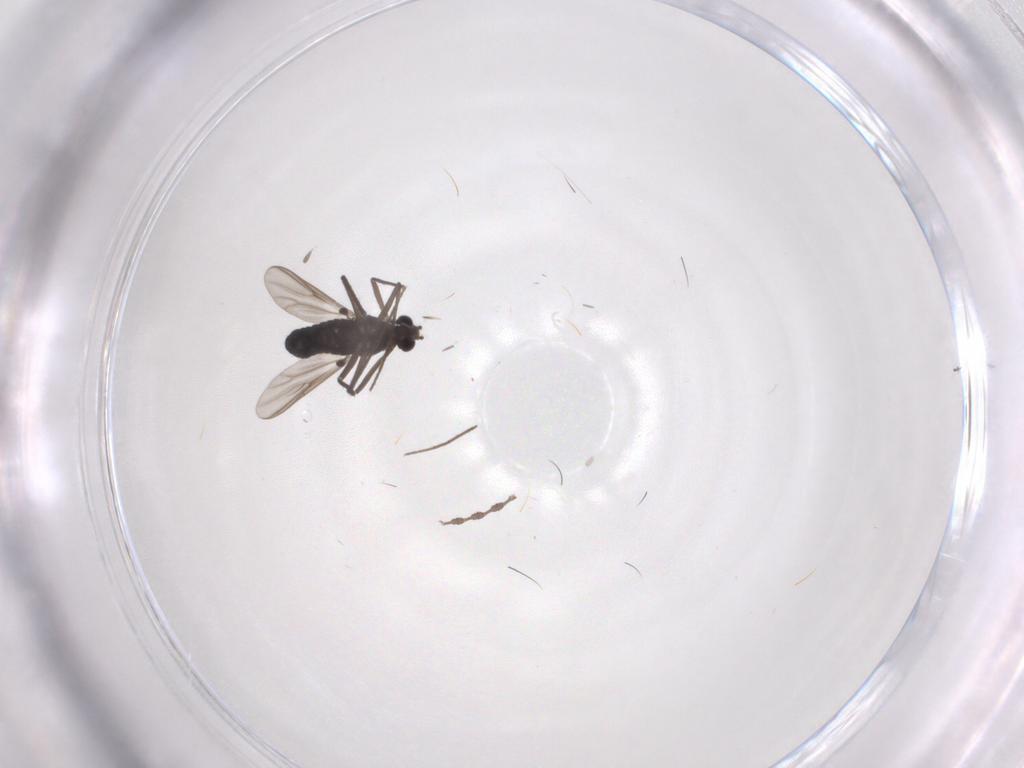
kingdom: Animalia
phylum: Arthropoda
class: Insecta
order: Diptera
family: Chironomidae
